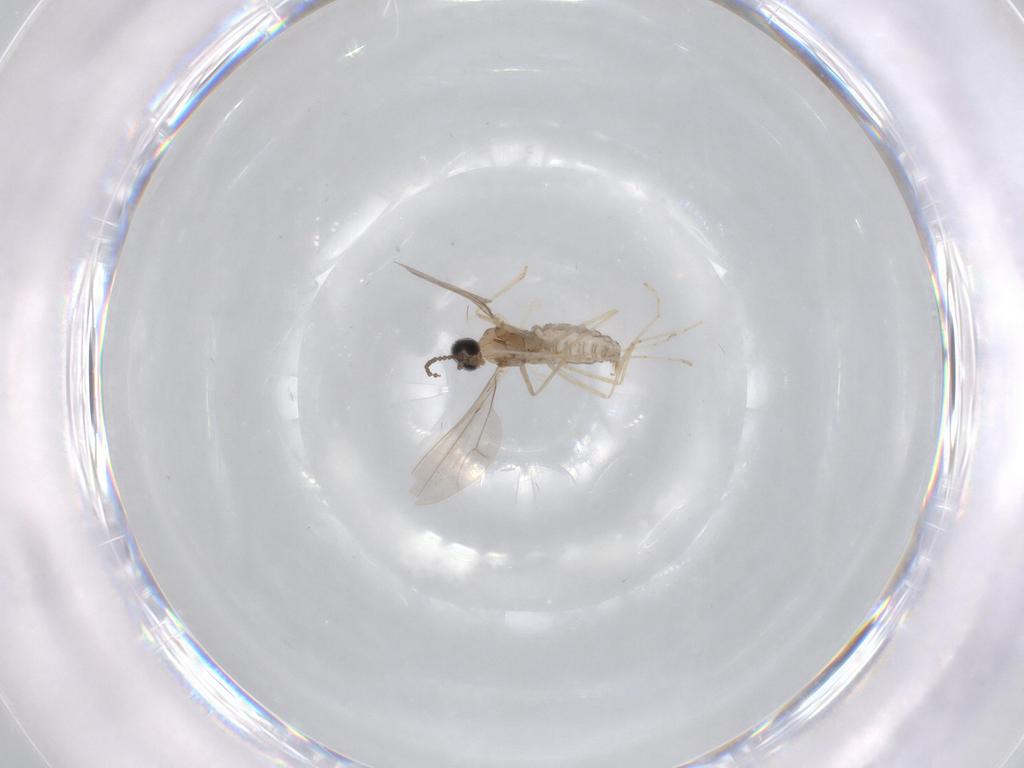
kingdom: Animalia
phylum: Arthropoda
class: Insecta
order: Diptera
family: Cecidomyiidae
